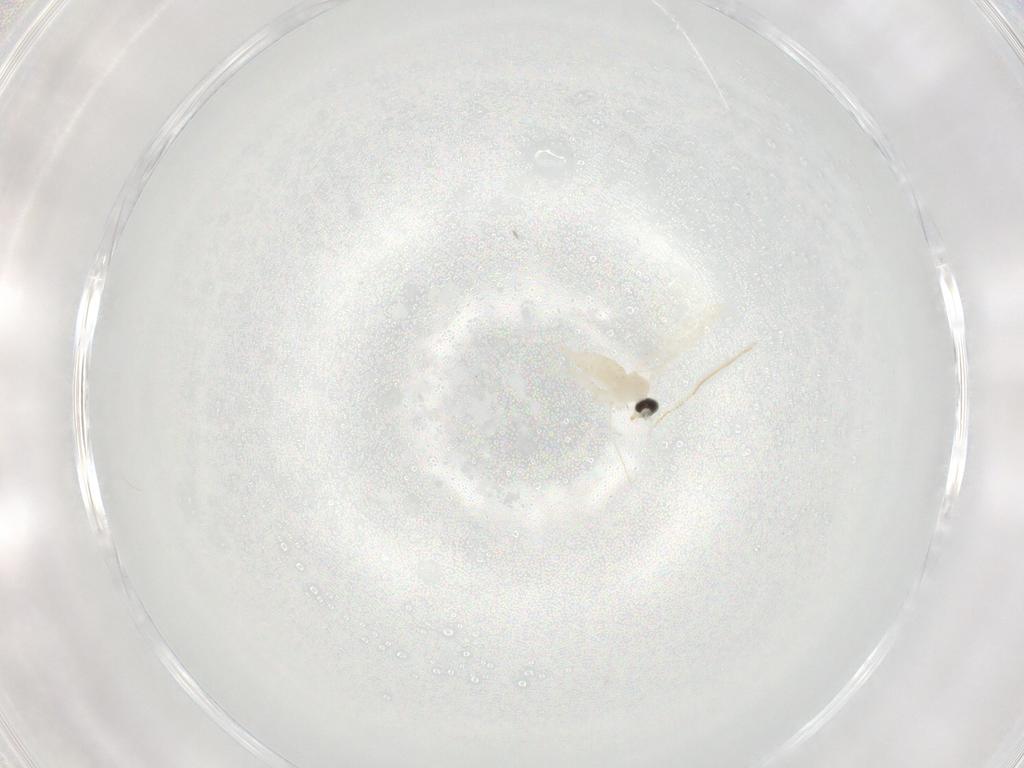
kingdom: Animalia
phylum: Arthropoda
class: Insecta
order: Diptera
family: Cecidomyiidae
